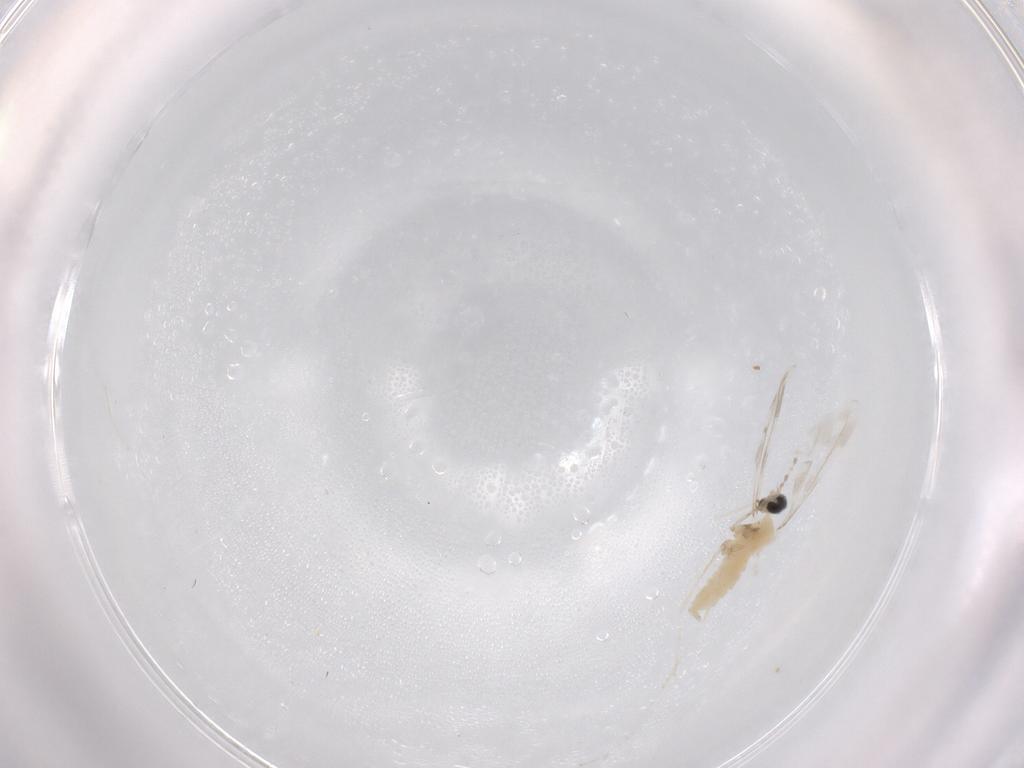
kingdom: Animalia
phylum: Arthropoda
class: Insecta
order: Diptera
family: Cecidomyiidae
